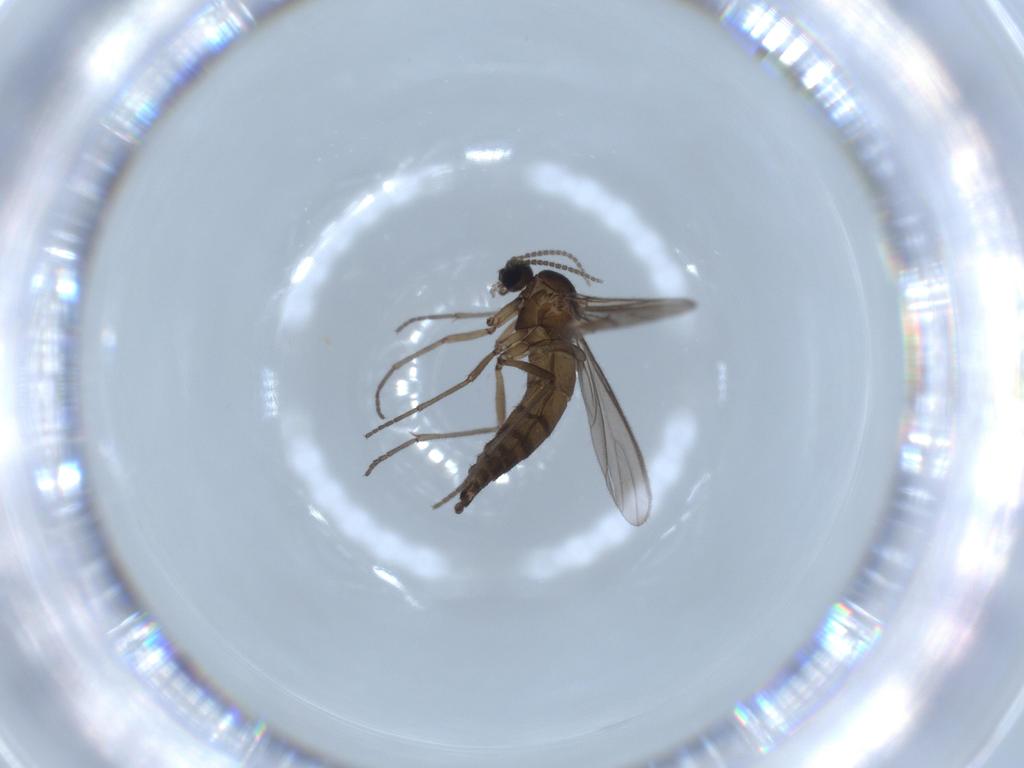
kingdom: Animalia
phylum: Arthropoda
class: Insecta
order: Diptera
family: Sciaridae
